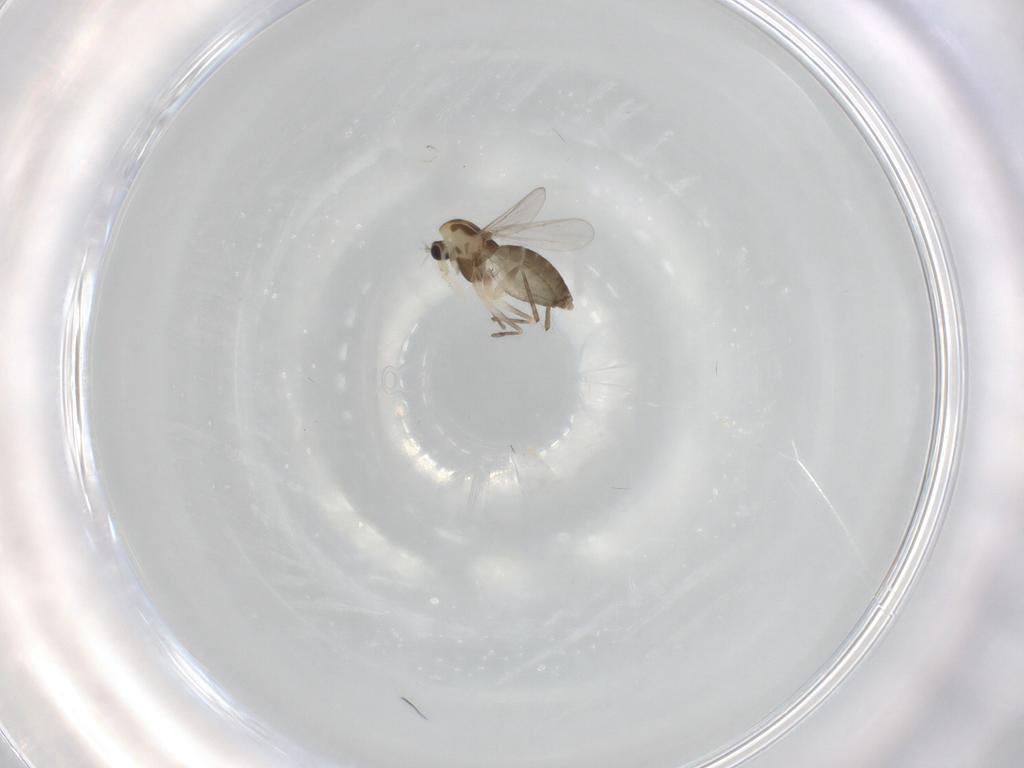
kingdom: Animalia
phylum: Arthropoda
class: Insecta
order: Diptera
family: Chironomidae
